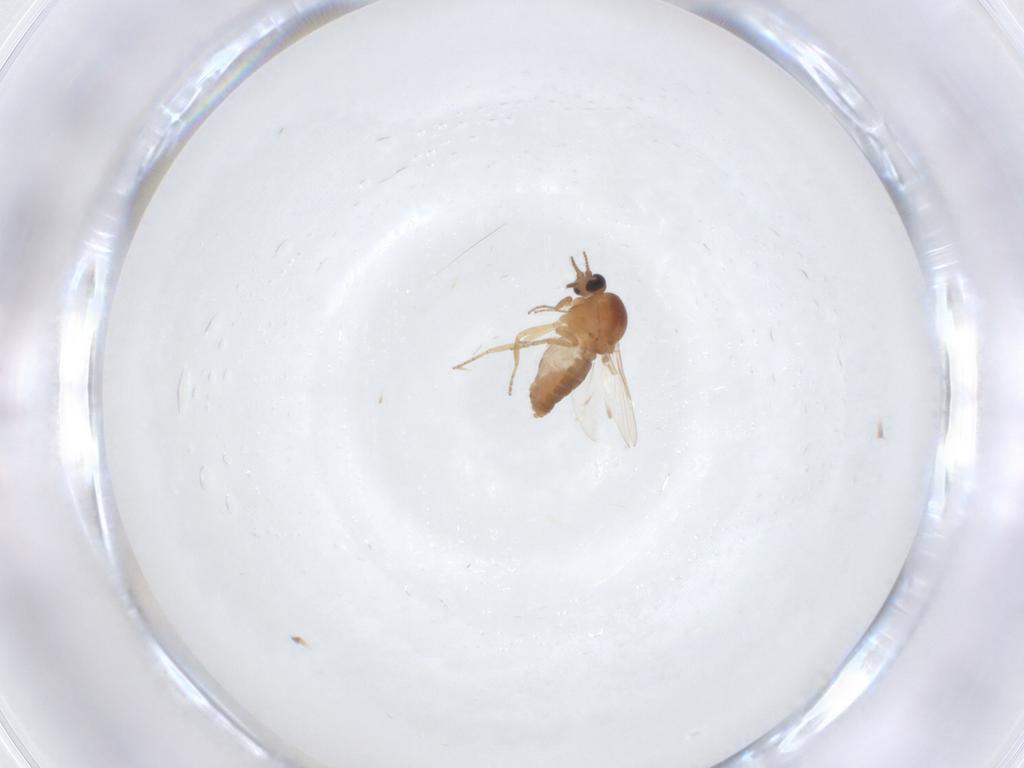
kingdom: Animalia
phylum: Arthropoda
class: Insecta
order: Diptera
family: Ceratopogonidae
